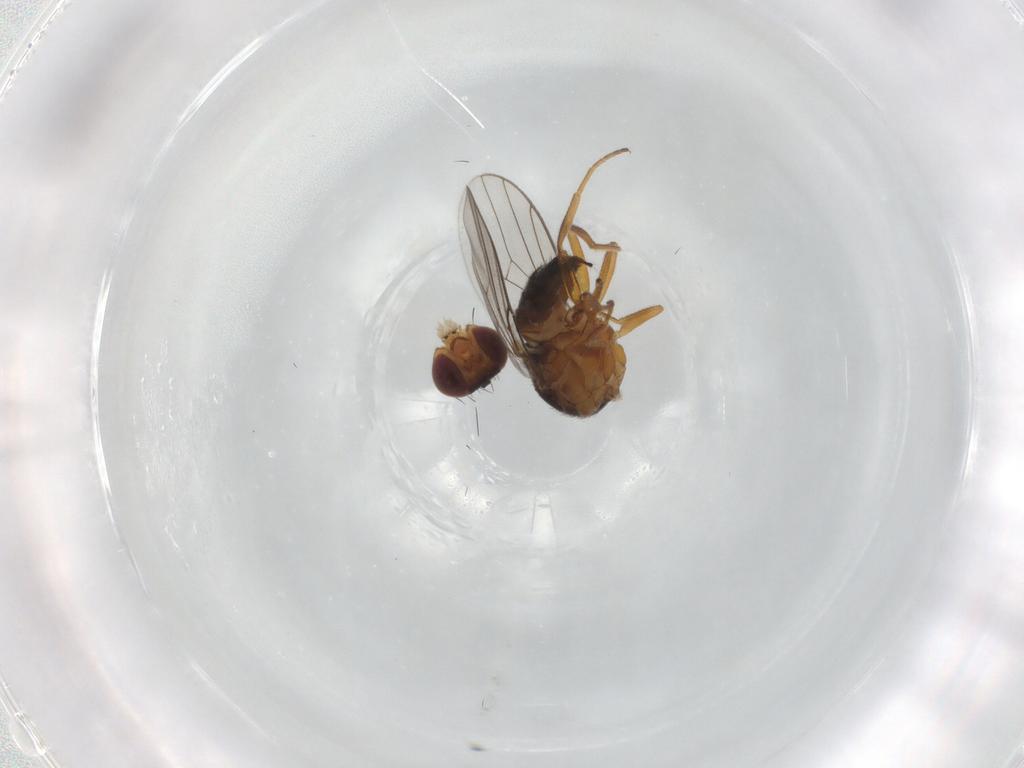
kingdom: Animalia
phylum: Arthropoda
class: Insecta
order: Diptera
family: Chloropidae
